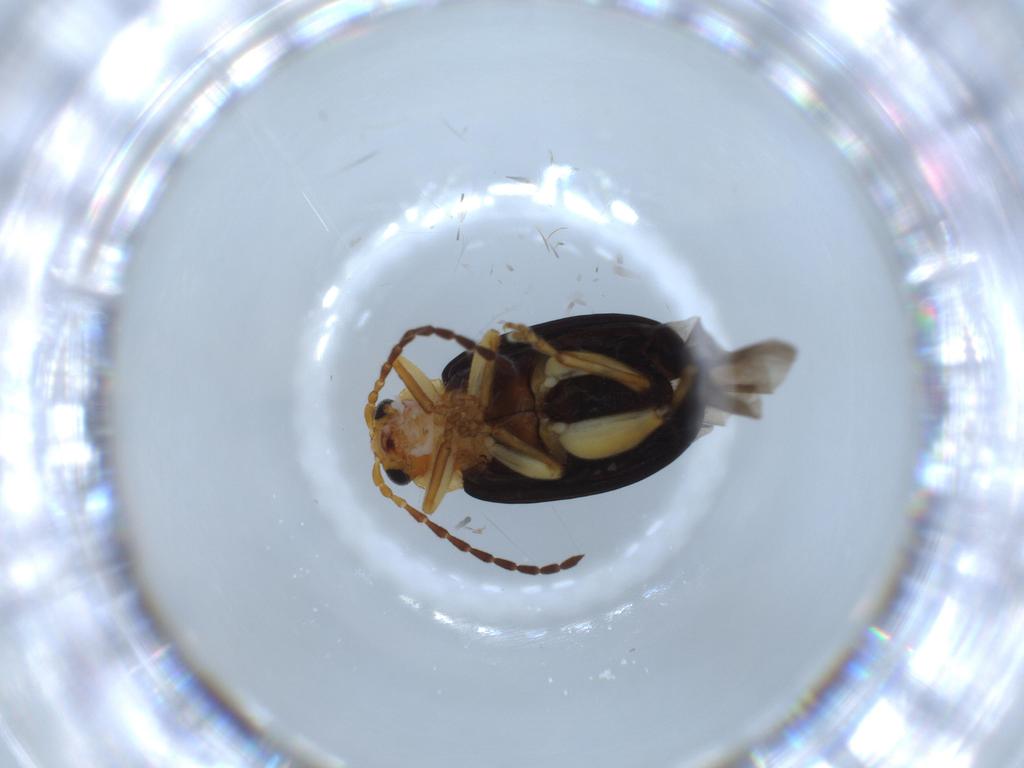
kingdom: Animalia
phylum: Arthropoda
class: Insecta
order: Coleoptera
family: Chrysomelidae
